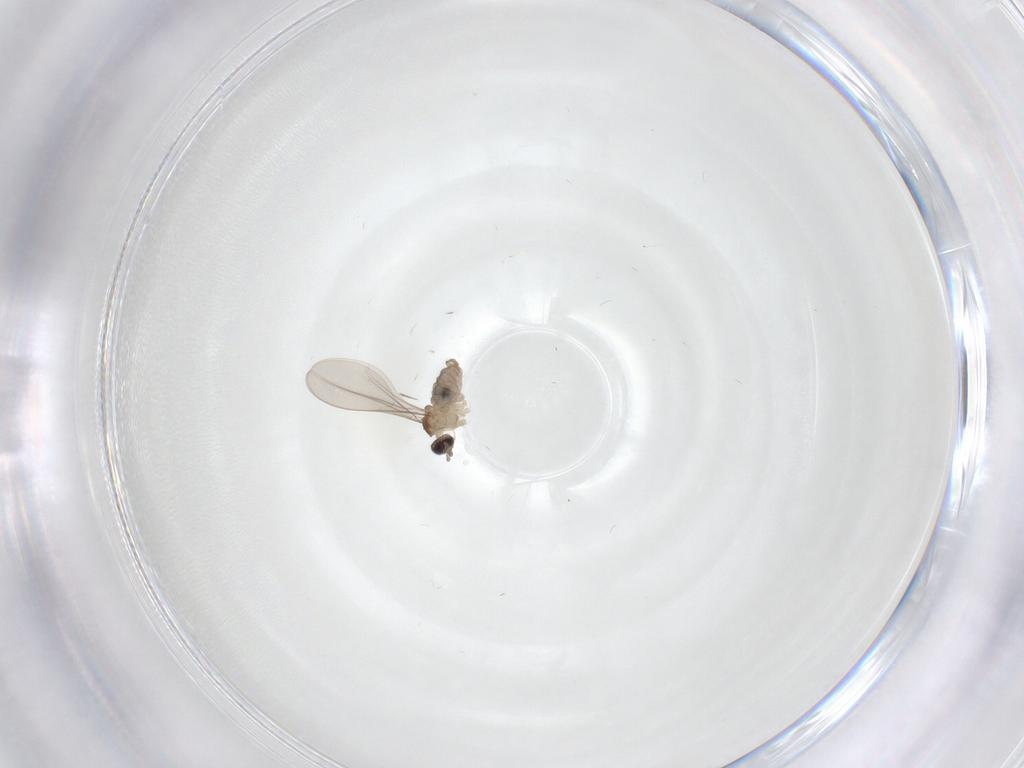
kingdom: Animalia
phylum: Arthropoda
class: Insecta
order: Diptera
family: Cecidomyiidae
